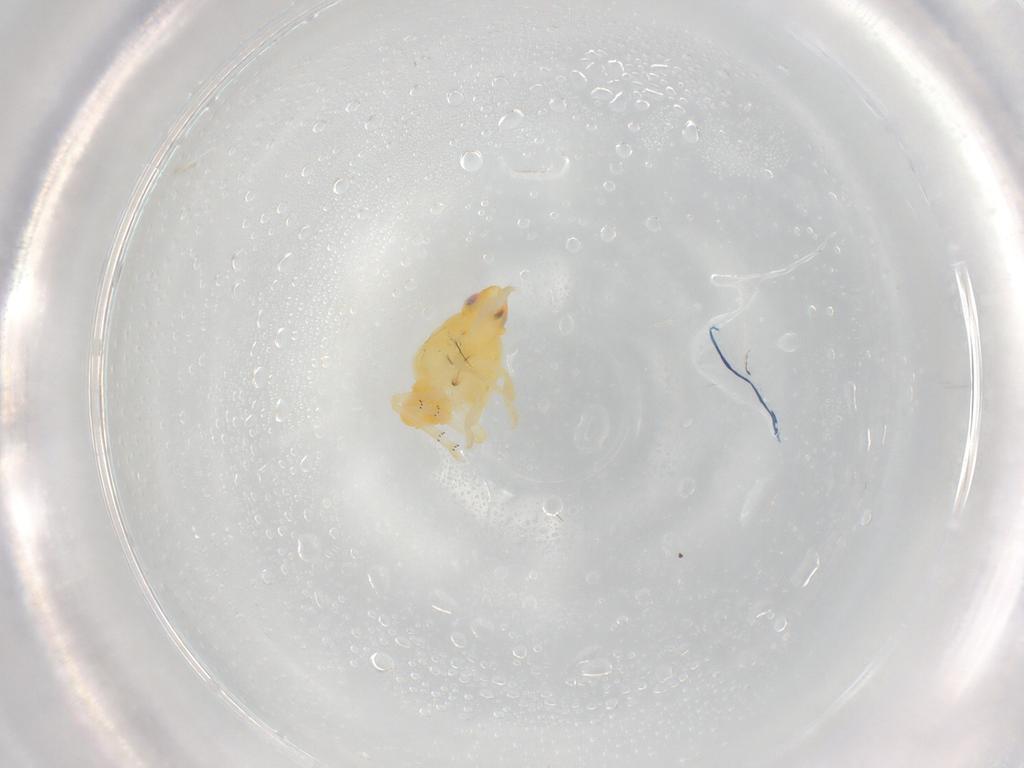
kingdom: Animalia
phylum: Arthropoda
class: Insecta
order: Hemiptera
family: Tropiduchidae
